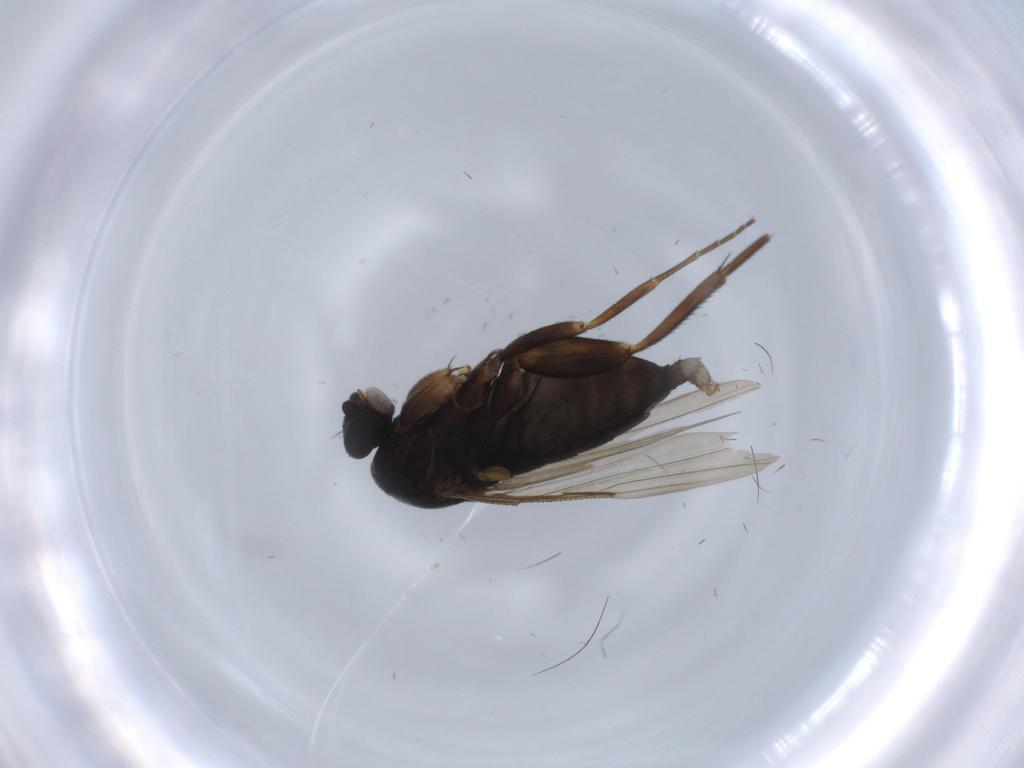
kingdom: Animalia
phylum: Arthropoda
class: Insecta
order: Diptera
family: Phoridae
